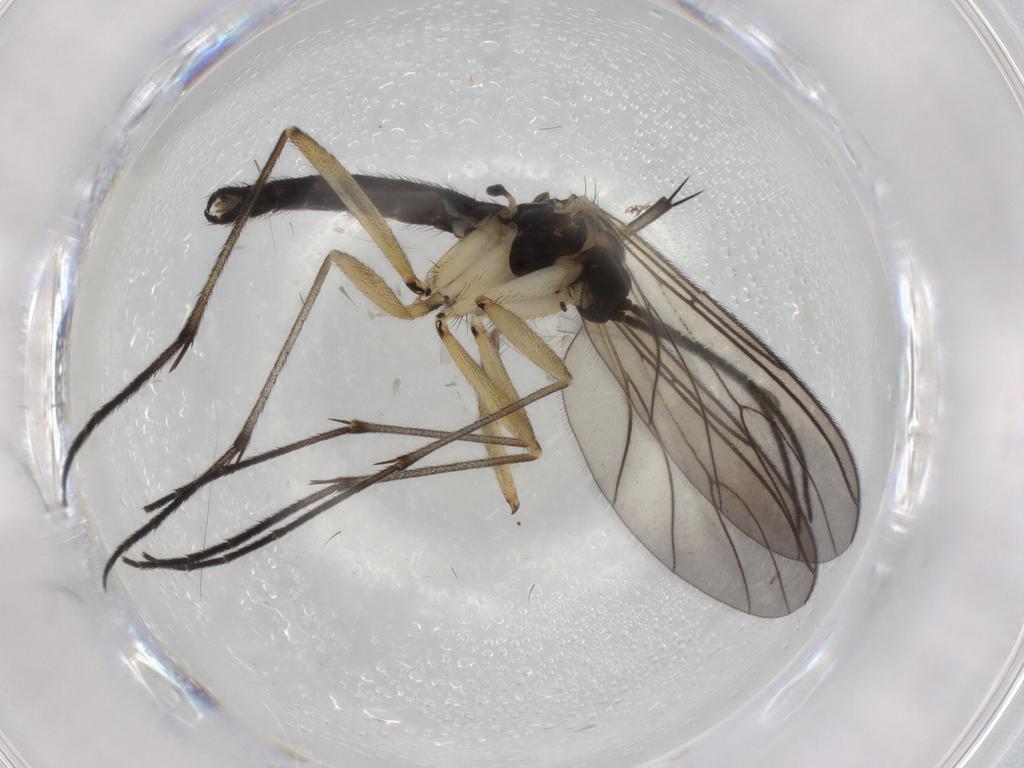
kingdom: Animalia
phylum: Arthropoda
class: Insecta
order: Diptera
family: Sciaridae
